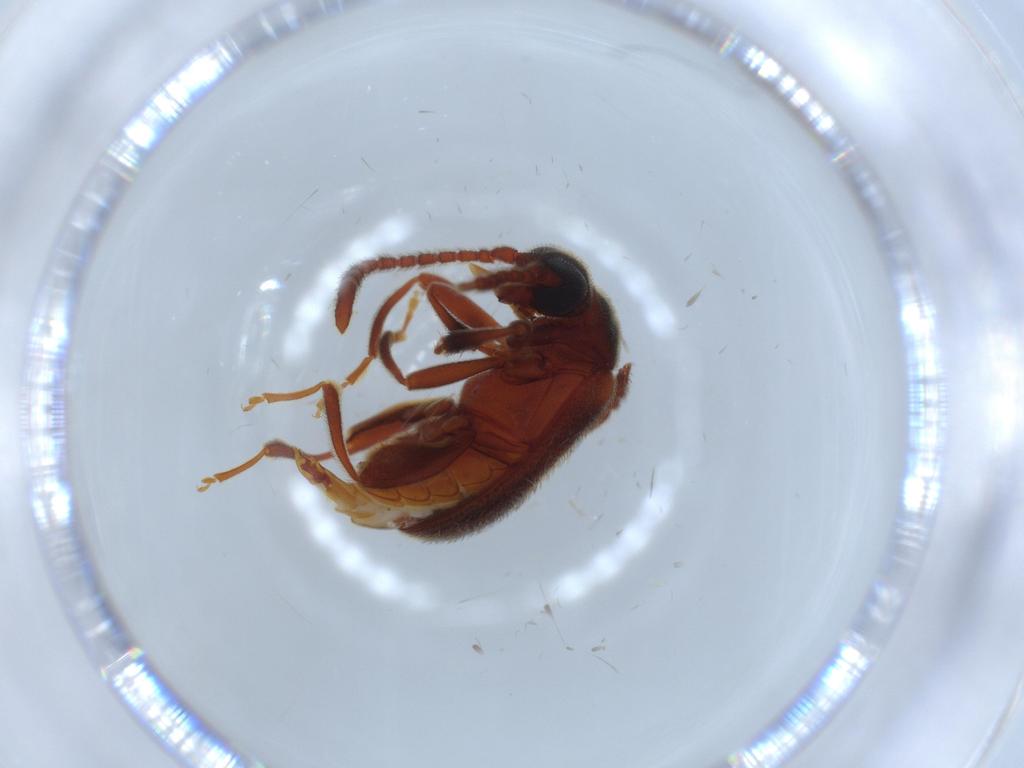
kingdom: Animalia
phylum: Arthropoda
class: Insecta
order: Coleoptera
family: Aderidae
